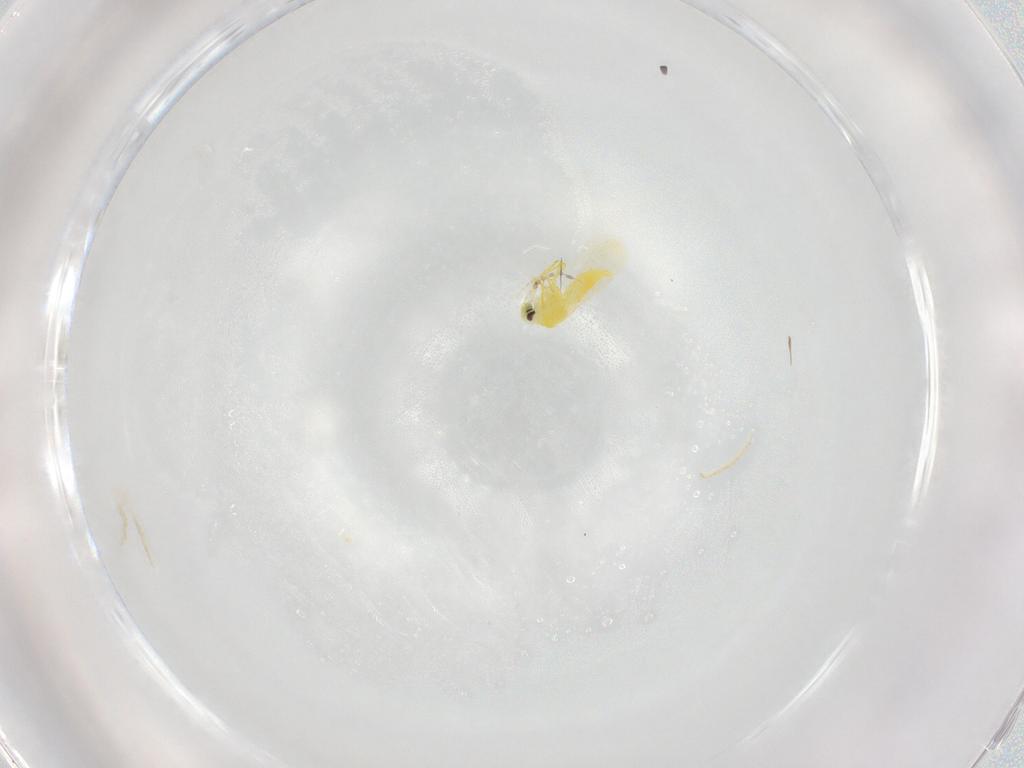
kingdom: Animalia
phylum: Arthropoda
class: Insecta
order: Hemiptera
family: Aleyrodidae
